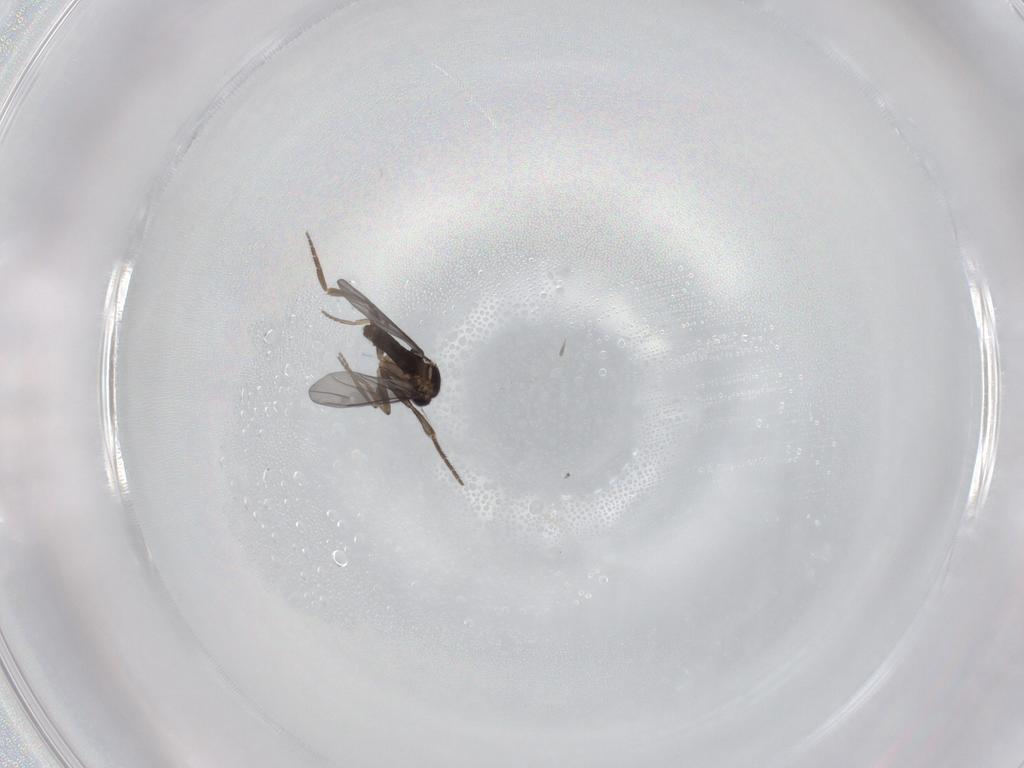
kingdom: Animalia
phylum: Arthropoda
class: Insecta
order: Diptera
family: Phoridae
